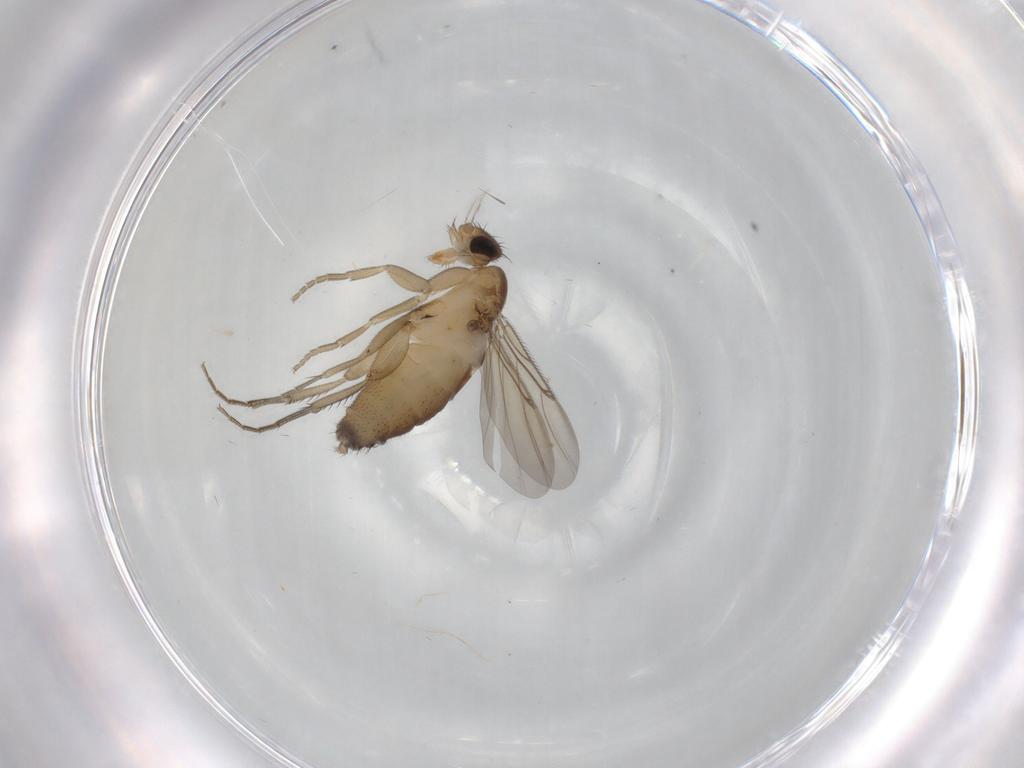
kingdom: Animalia
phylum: Arthropoda
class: Insecta
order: Diptera
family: Phoridae
